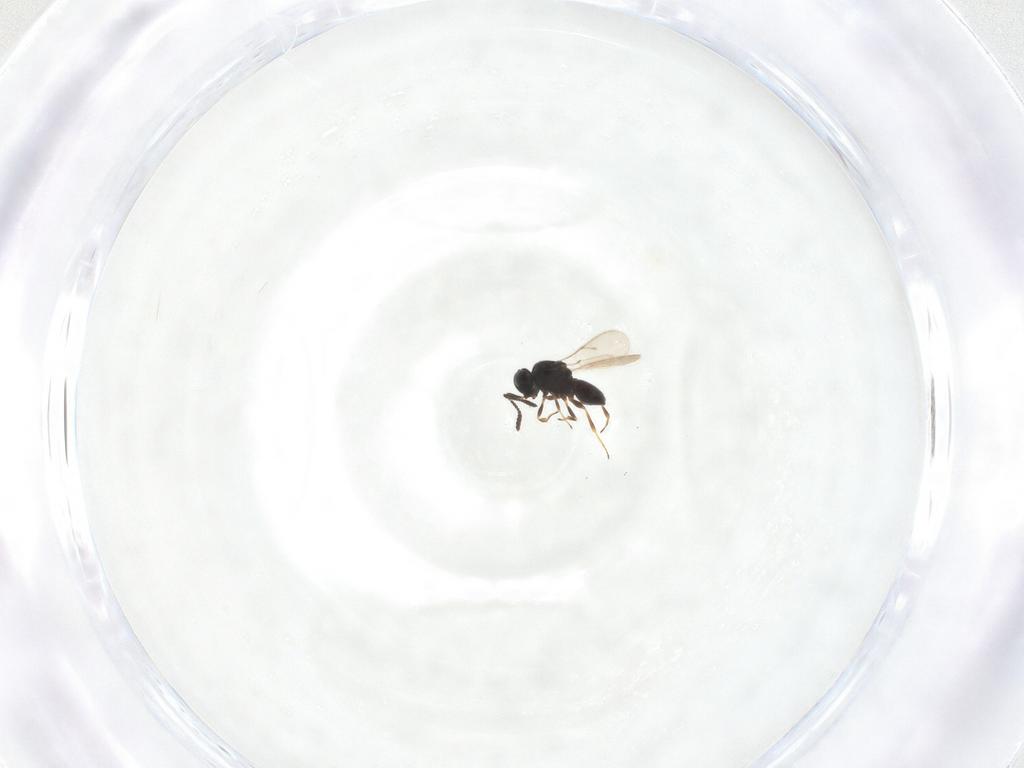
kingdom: Animalia
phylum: Arthropoda
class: Insecta
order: Hymenoptera
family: Scelionidae
